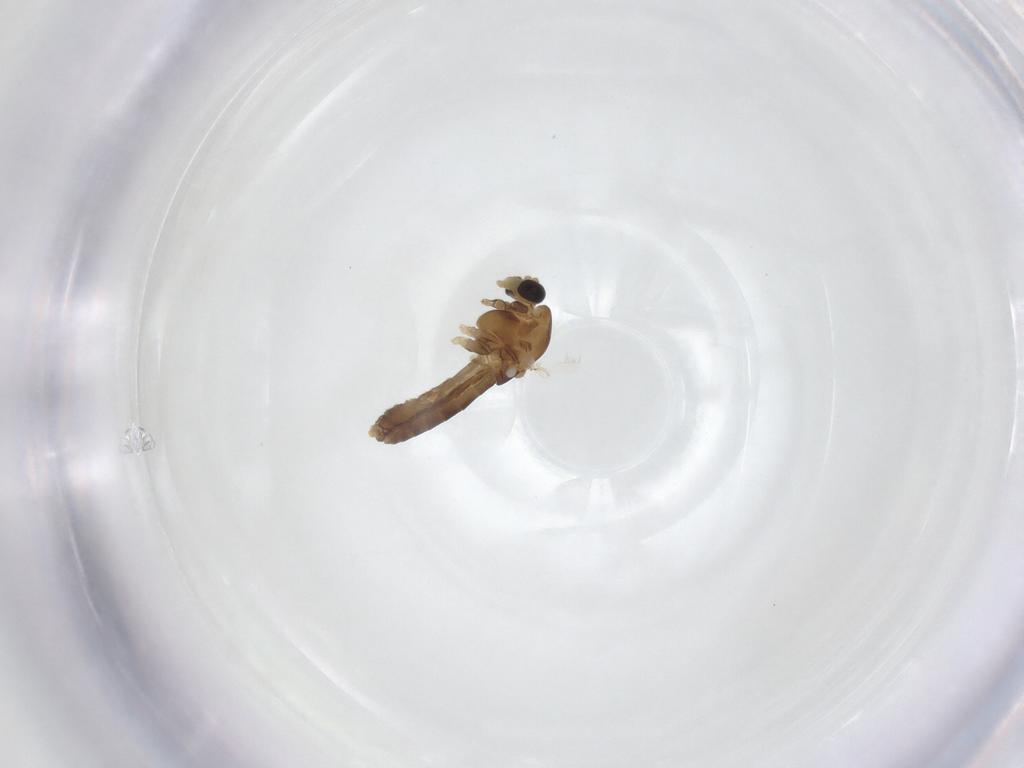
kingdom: Animalia
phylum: Arthropoda
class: Insecta
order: Diptera
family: Chironomidae
